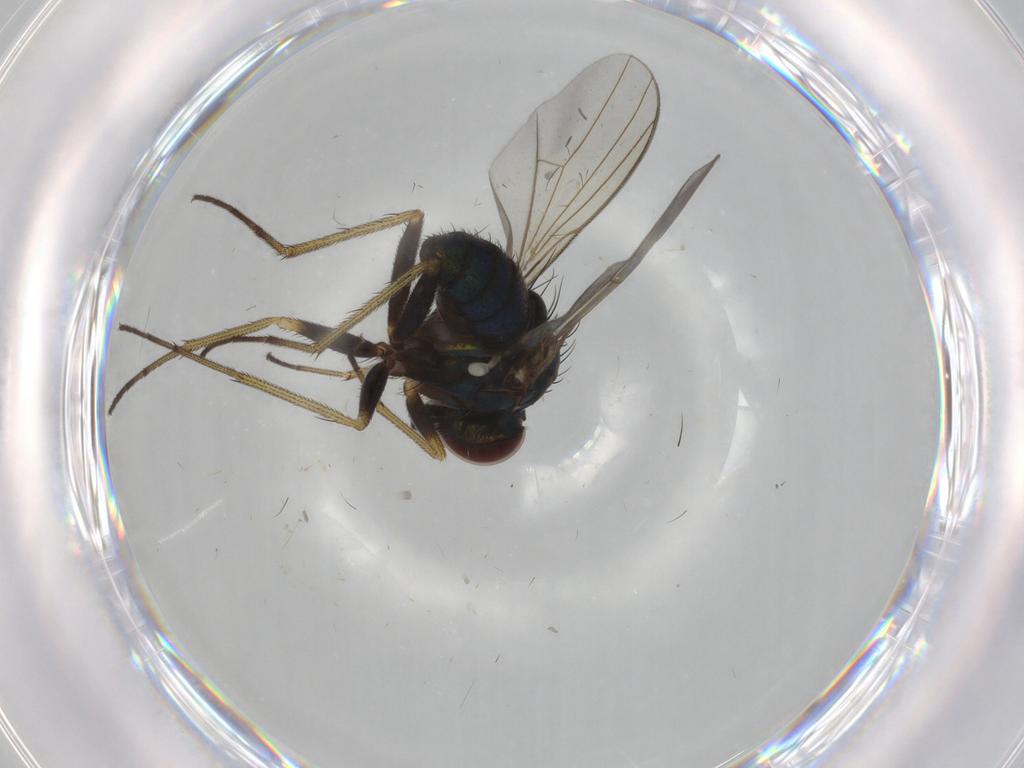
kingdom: Animalia
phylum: Arthropoda
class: Insecta
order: Diptera
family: Dolichopodidae
